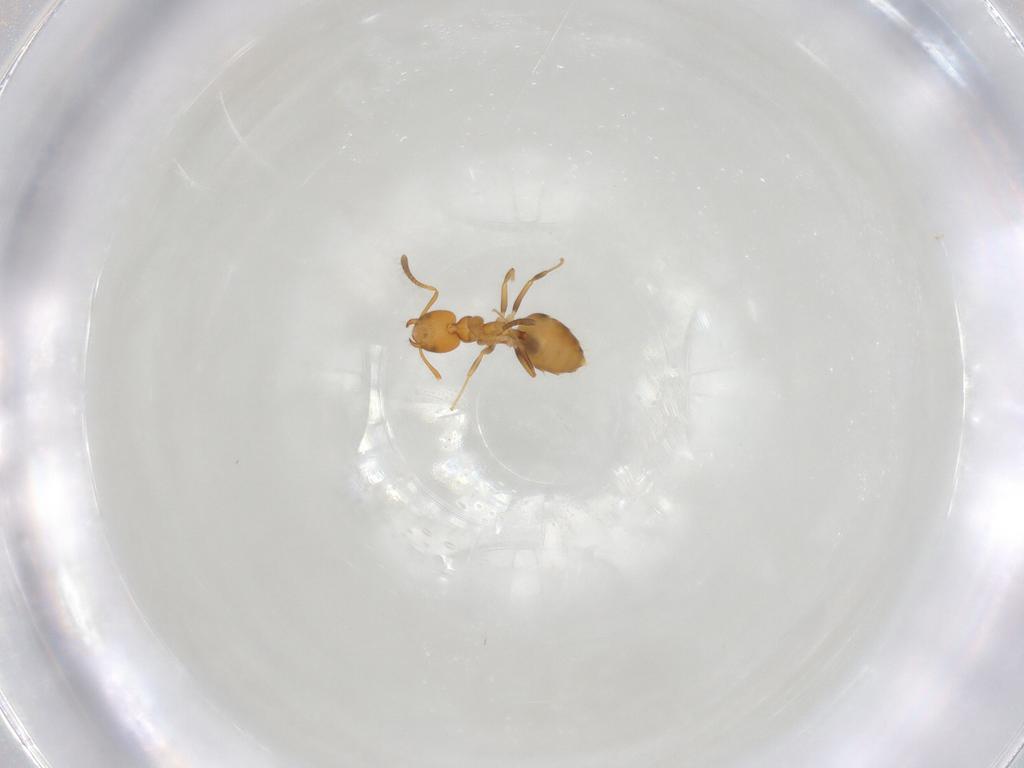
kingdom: Animalia
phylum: Arthropoda
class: Insecta
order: Hymenoptera
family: Formicidae
